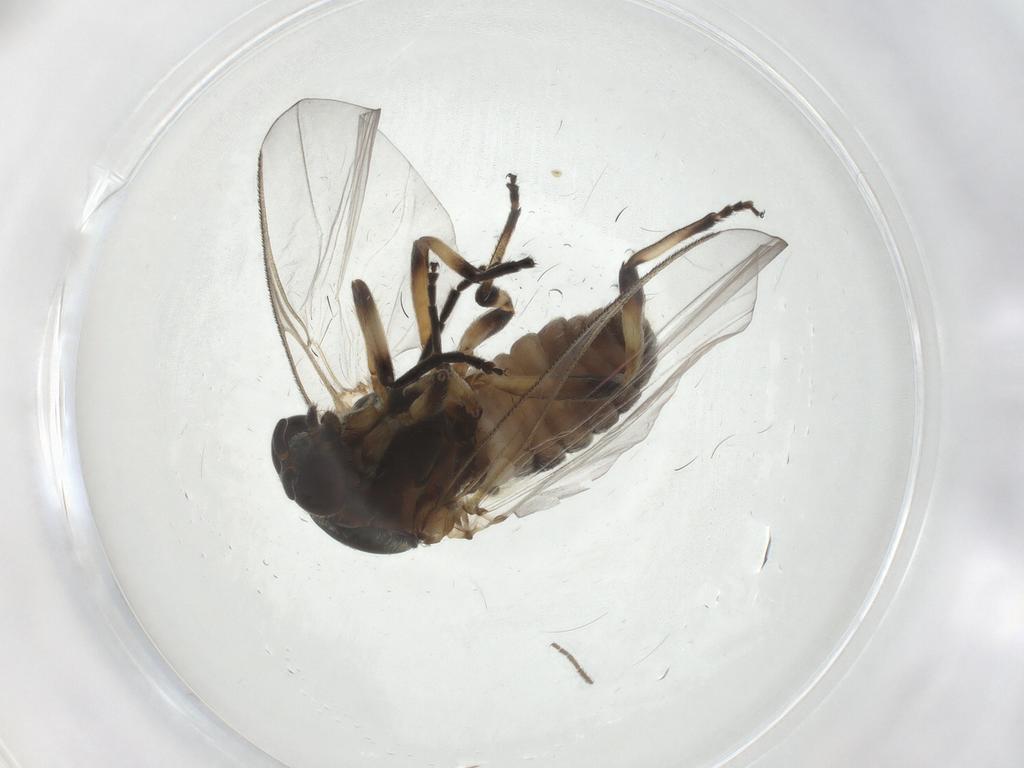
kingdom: Animalia
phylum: Arthropoda
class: Insecta
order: Diptera
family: Simuliidae
